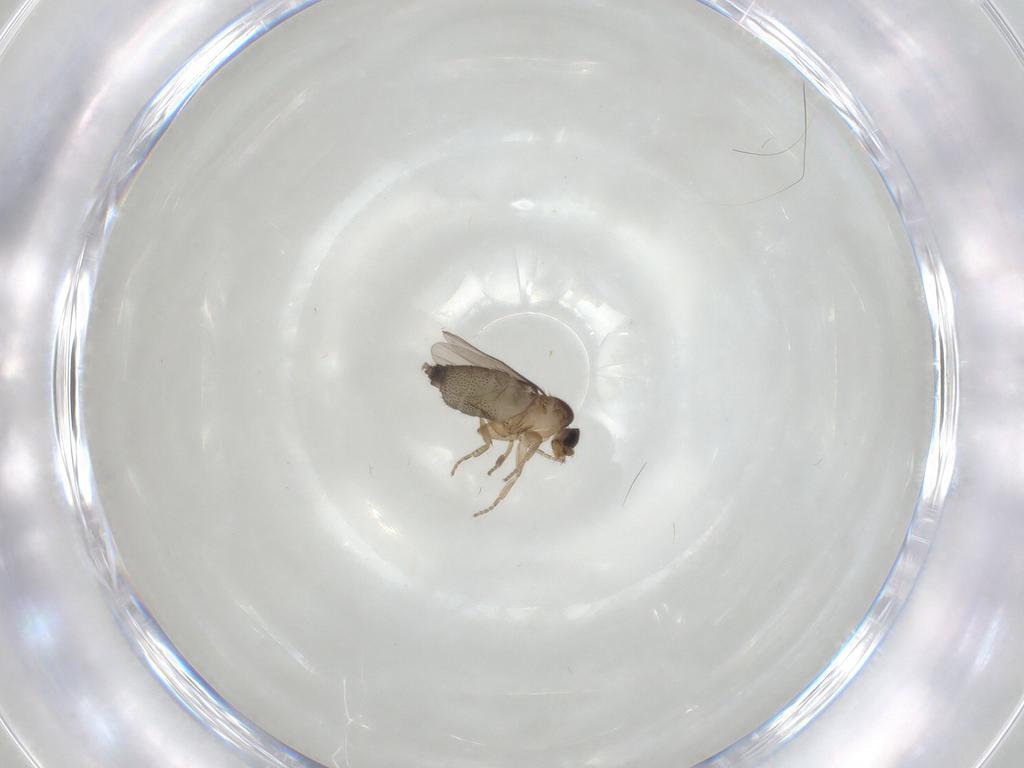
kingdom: Animalia
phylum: Arthropoda
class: Insecta
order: Diptera
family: Phoridae
